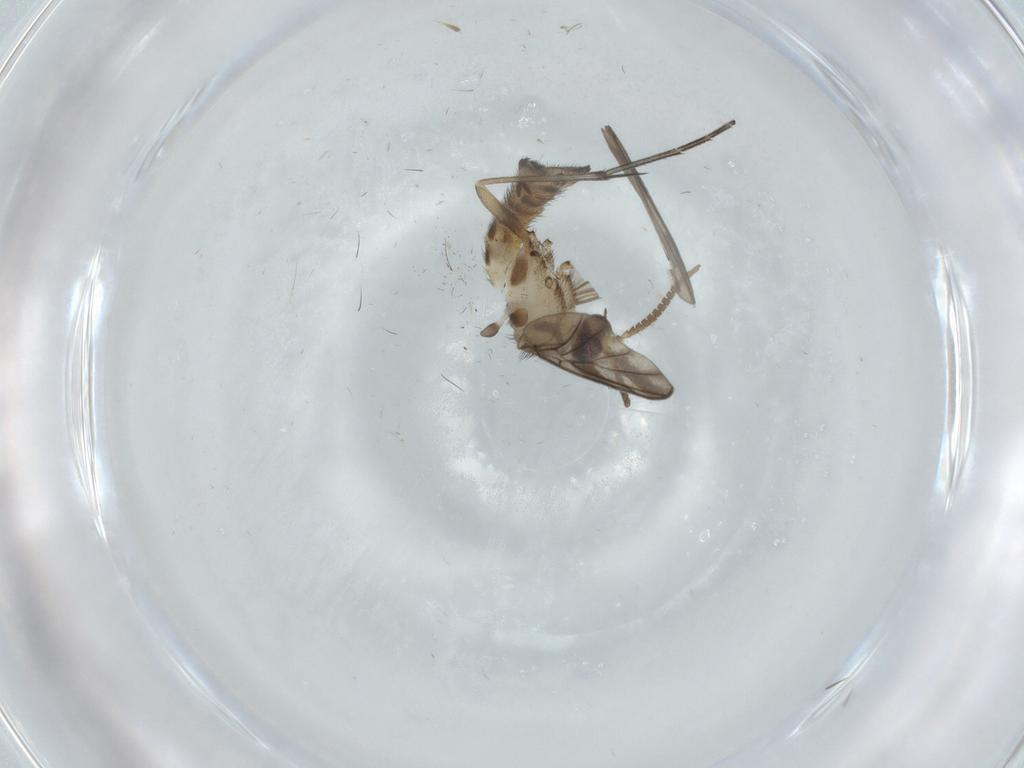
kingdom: Animalia
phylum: Arthropoda
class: Insecta
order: Diptera
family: Keroplatidae
